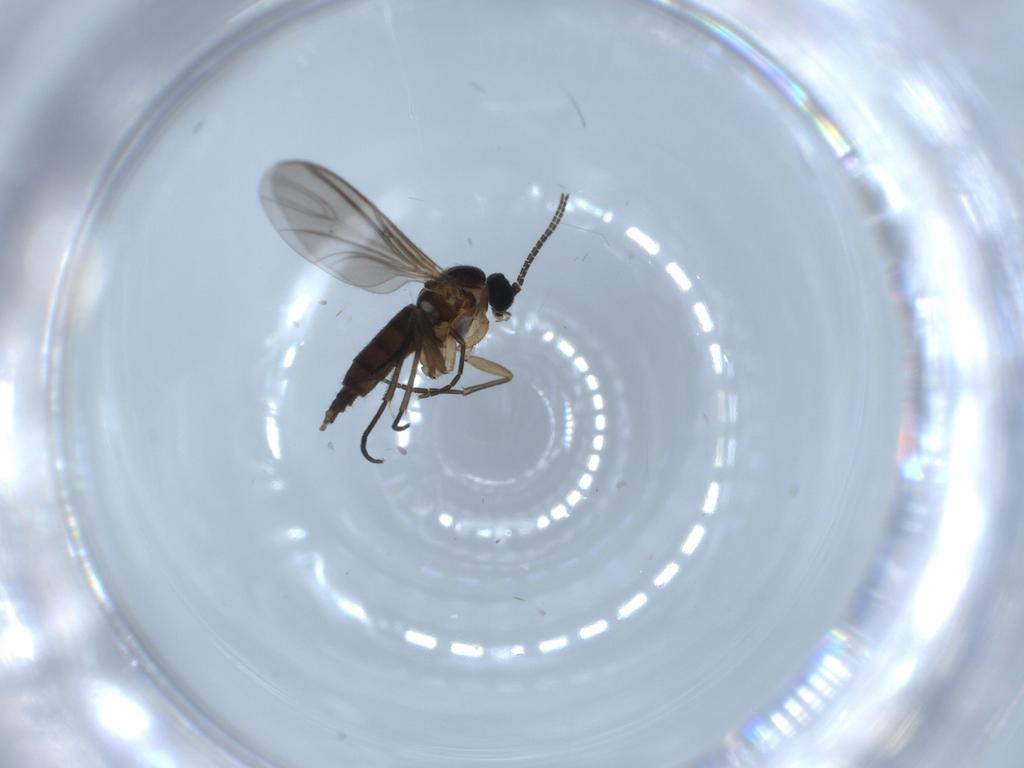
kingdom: Animalia
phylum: Arthropoda
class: Insecta
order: Diptera
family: Sciaridae
